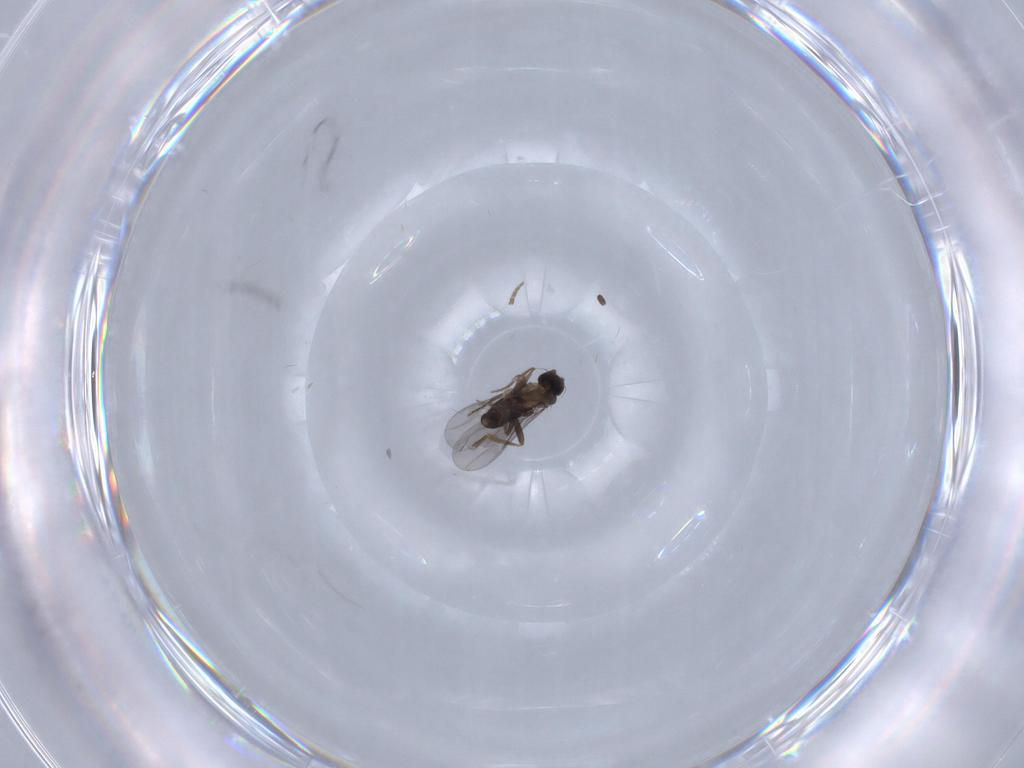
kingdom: Animalia
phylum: Arthropoda
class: Insecta
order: Diptera
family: Sciaridae
